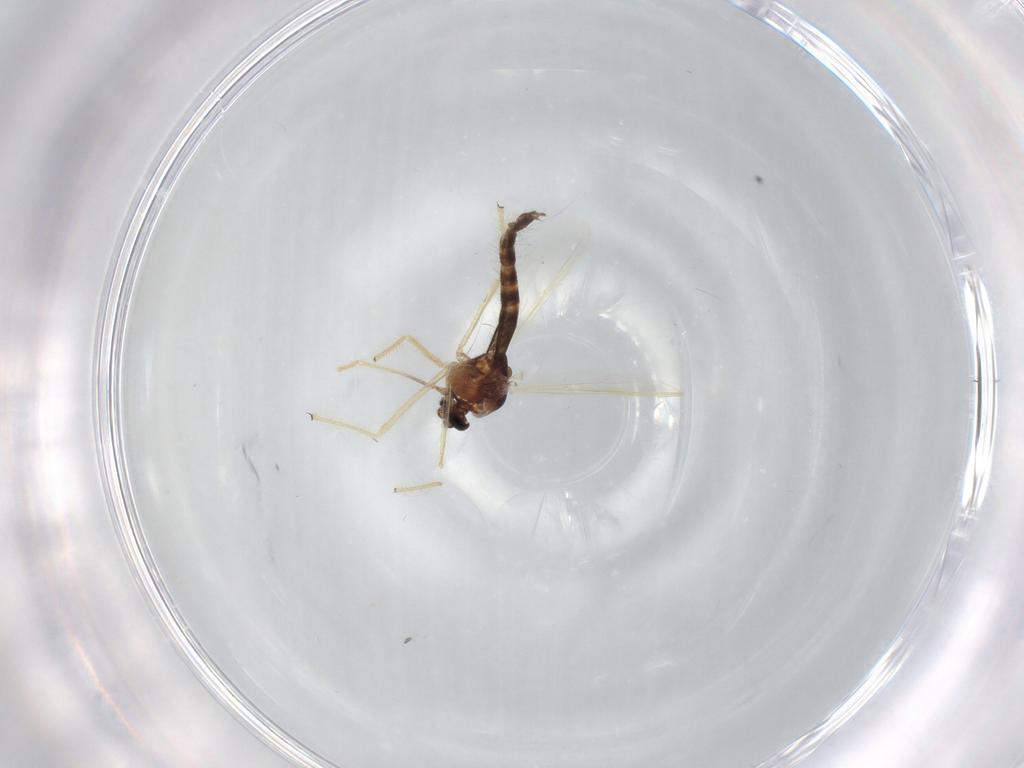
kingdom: Animalia
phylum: Arthropoda
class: Insecta
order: Diptera
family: Chironomidae
